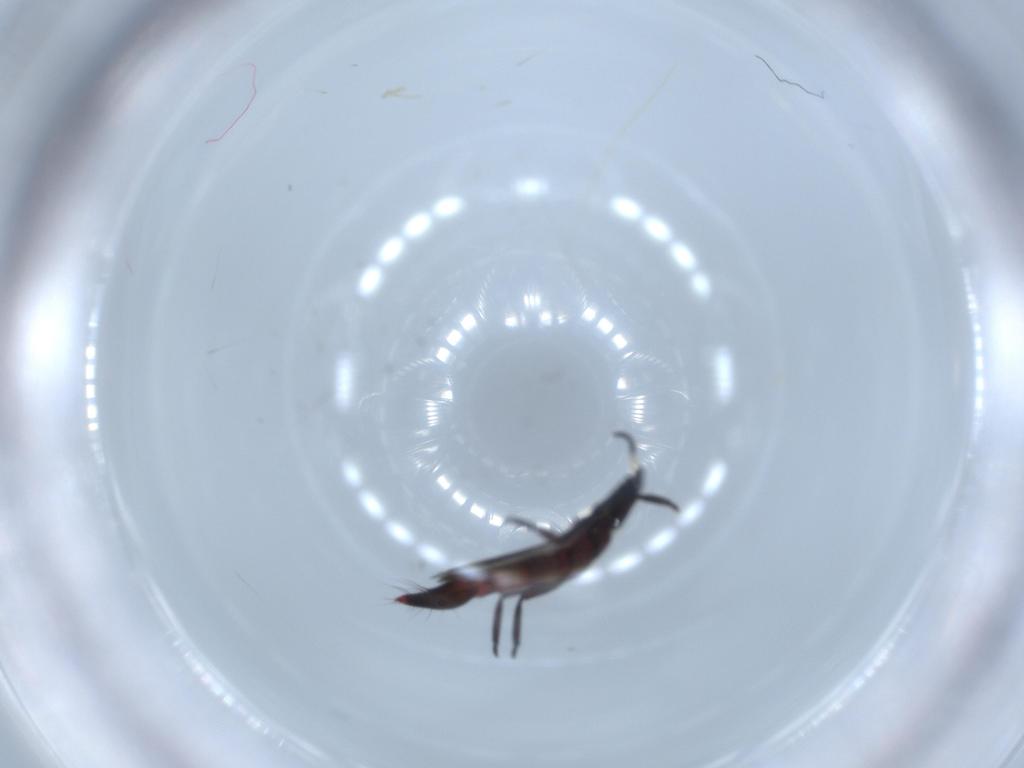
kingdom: Animalia
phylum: Arthropoda
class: Insecta
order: Thysanoptera
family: Aeolothripidae
